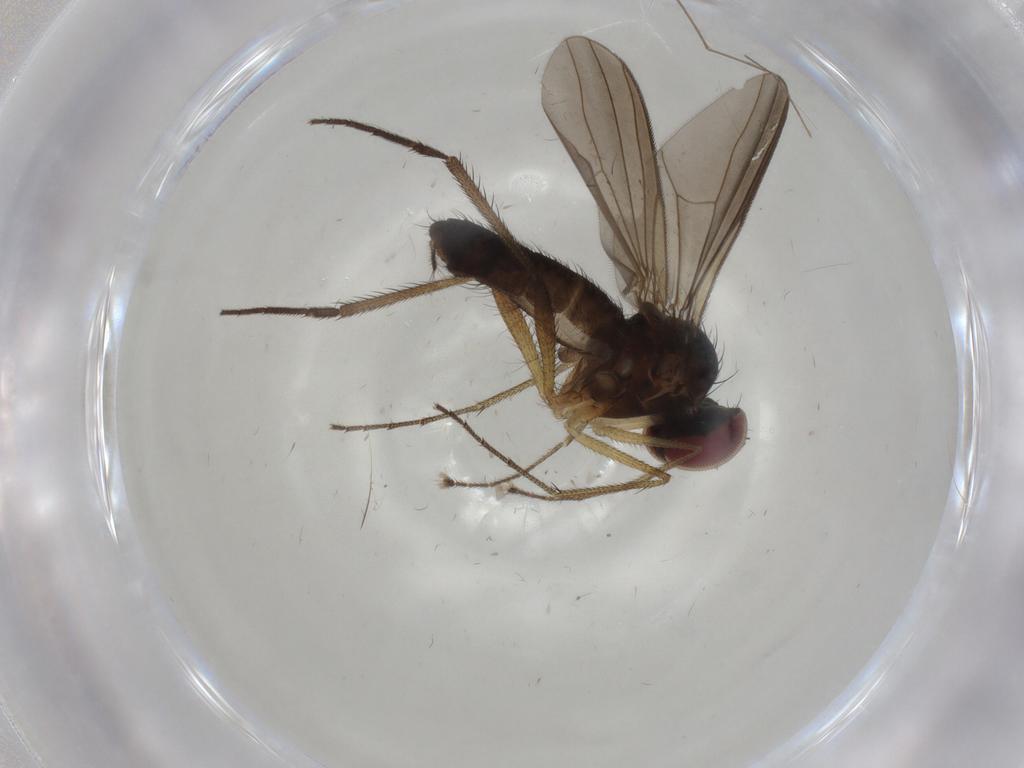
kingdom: Animalia
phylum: Arthropoda
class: Insecta
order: Diptera
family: Dolichopodidae
